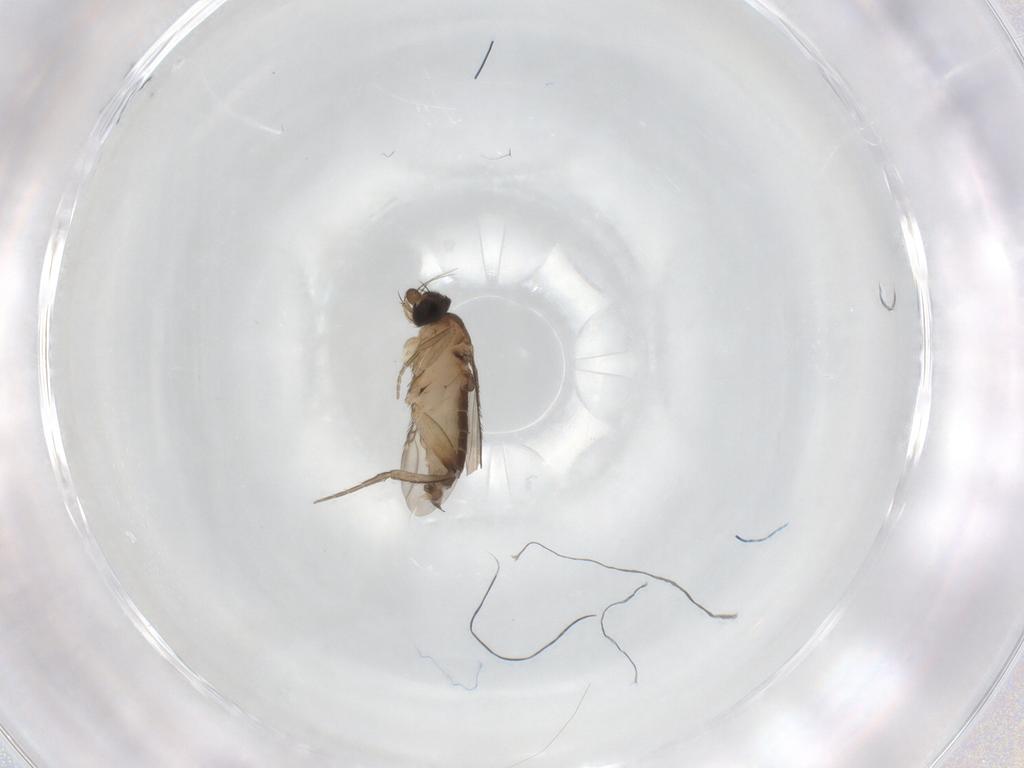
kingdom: Animalia
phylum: Arthropoda
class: Insecta
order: Diptera
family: Phoridae
